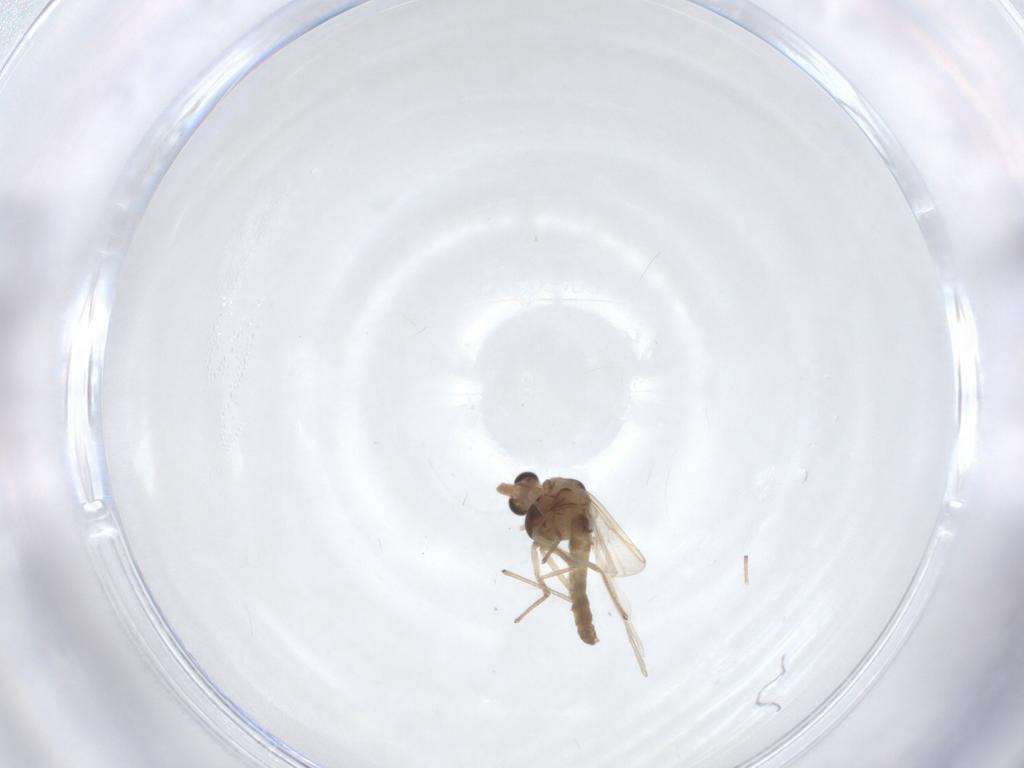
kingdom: Animalia
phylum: Arthropoda
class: Insecta
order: Diptera
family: Chironomidae
